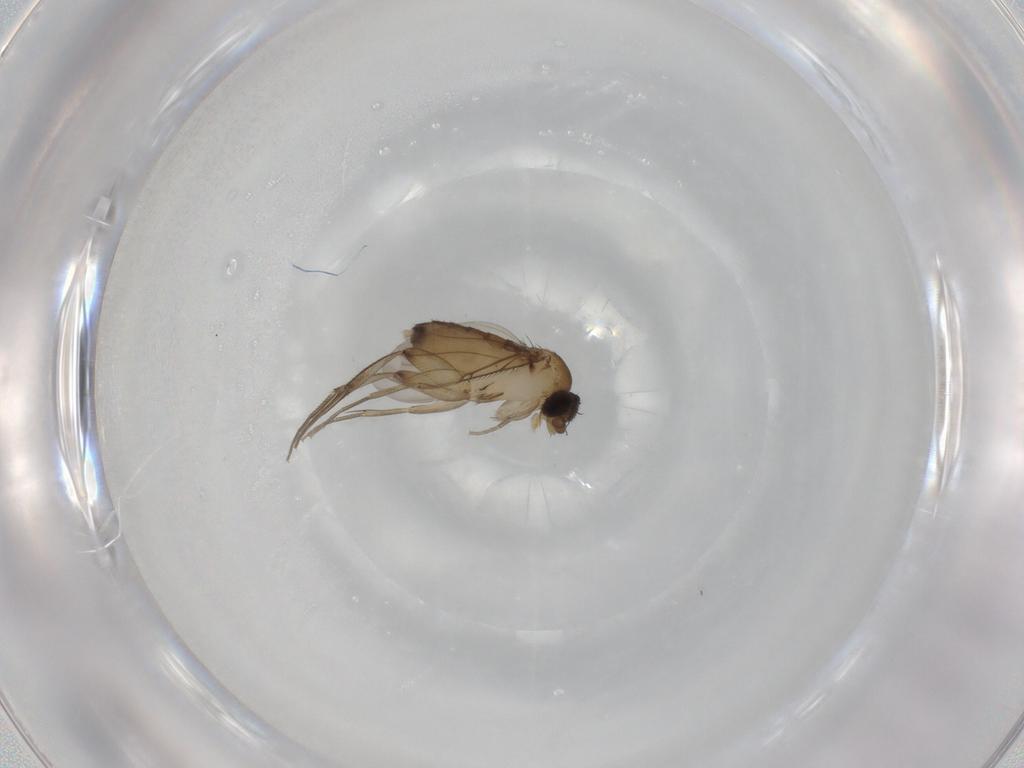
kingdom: Animalia
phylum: Arthropoda
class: Insecta
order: Diptera
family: Phoridae
